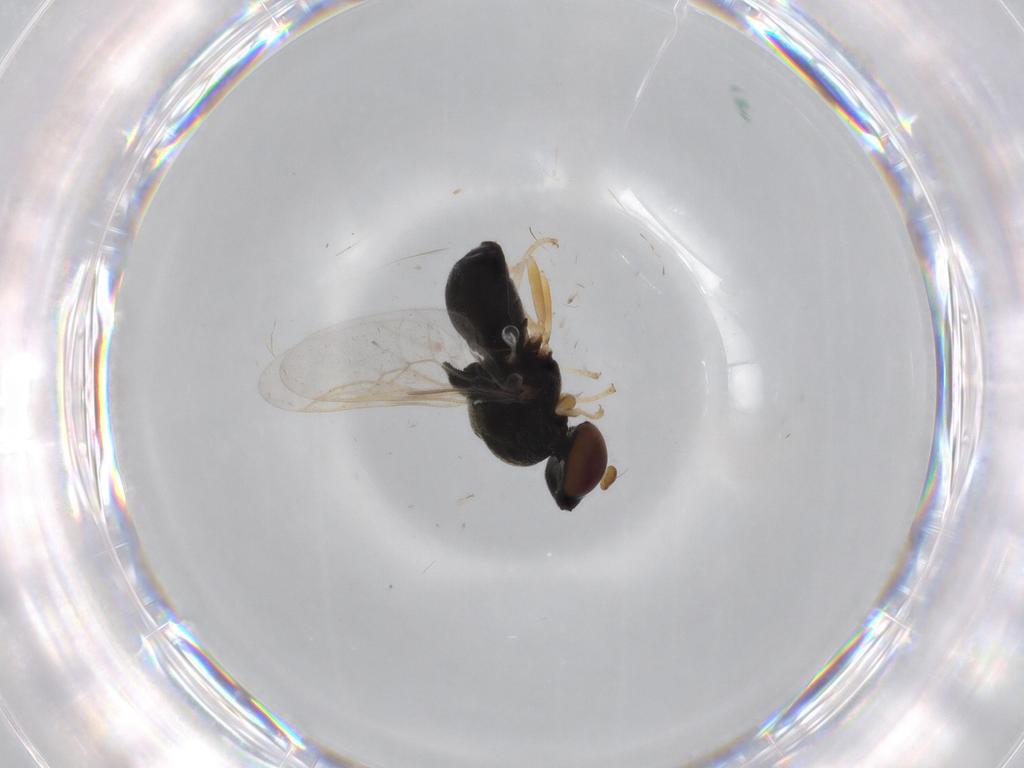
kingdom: Animalia
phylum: Arthropoda
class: Insecta
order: Diptera
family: Stratiomyidae
